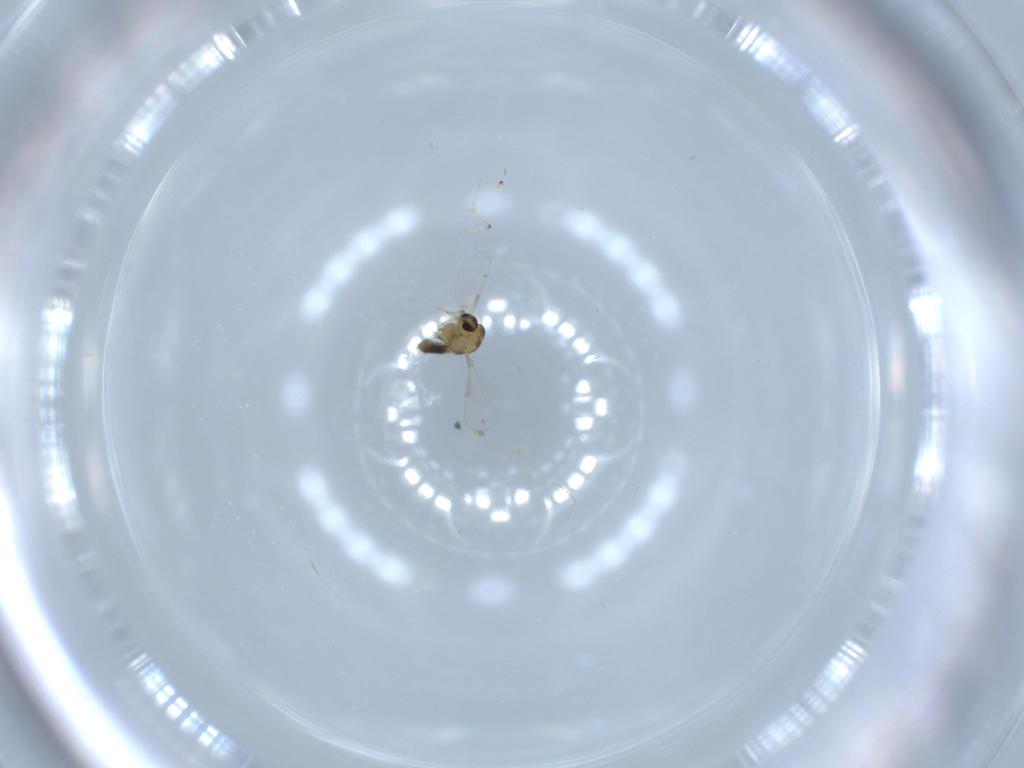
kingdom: Animalia
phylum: Arthropoda
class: Insecta
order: Diptera
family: Chironomidae
